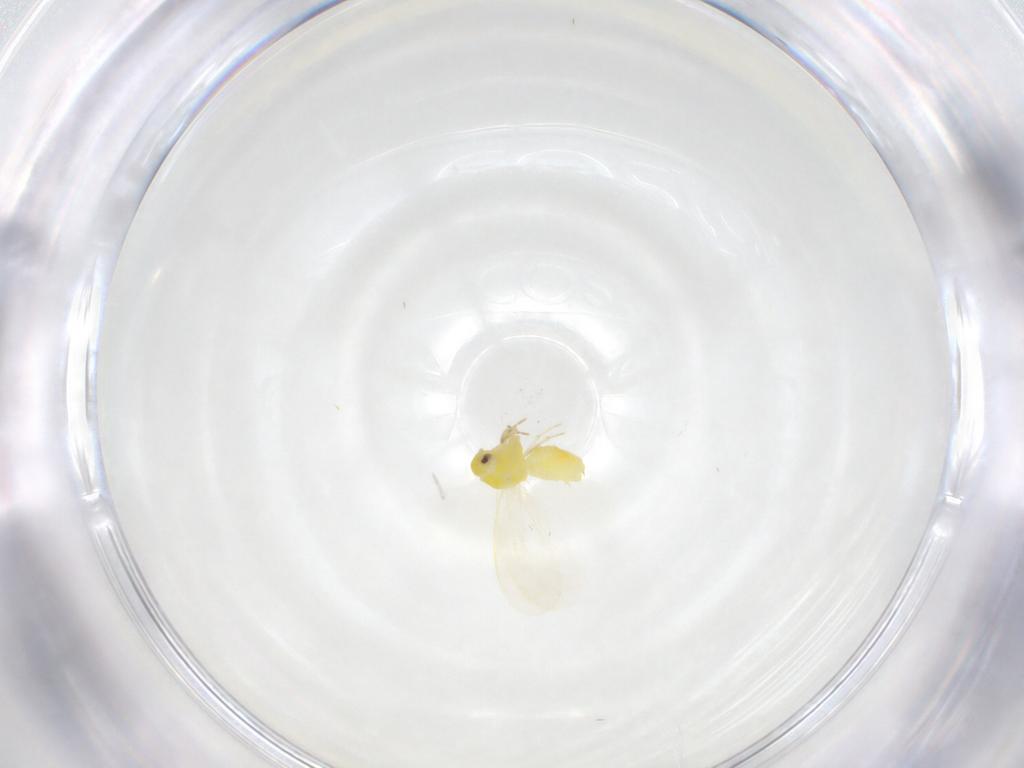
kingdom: Animalia
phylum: Arthropoda
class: Insecta
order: Hemiptera
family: Aleyrodidae
